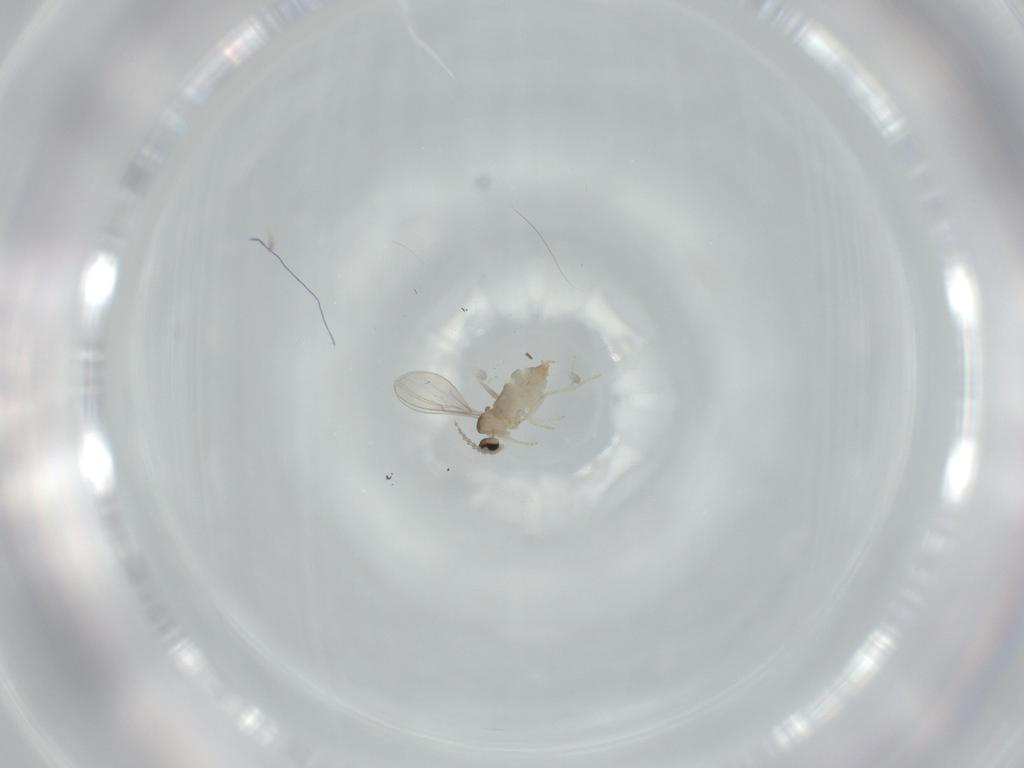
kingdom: Animalia
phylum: Arthropoda
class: Insecta
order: Diptera
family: Cecidomyiidae
